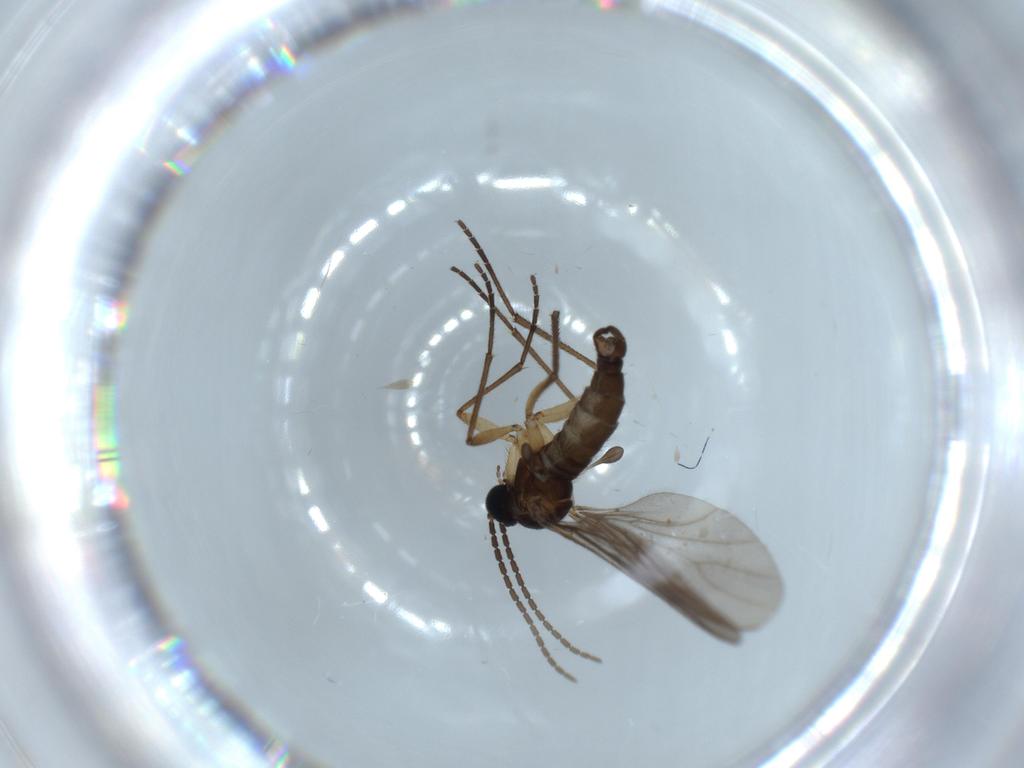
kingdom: Animalia
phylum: Arthropoda
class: Insecta
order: Diptera
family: Sciaridae
